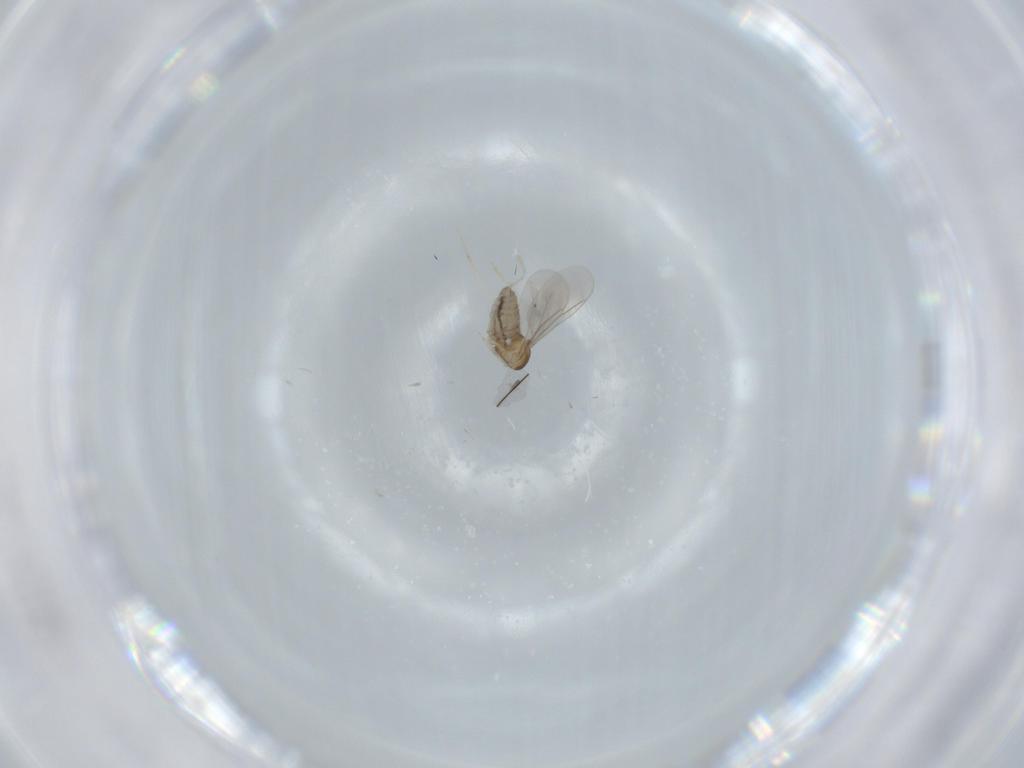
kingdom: Animalia
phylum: Arthropoda
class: Insecta
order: Diptera
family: Cecidomyiidae
